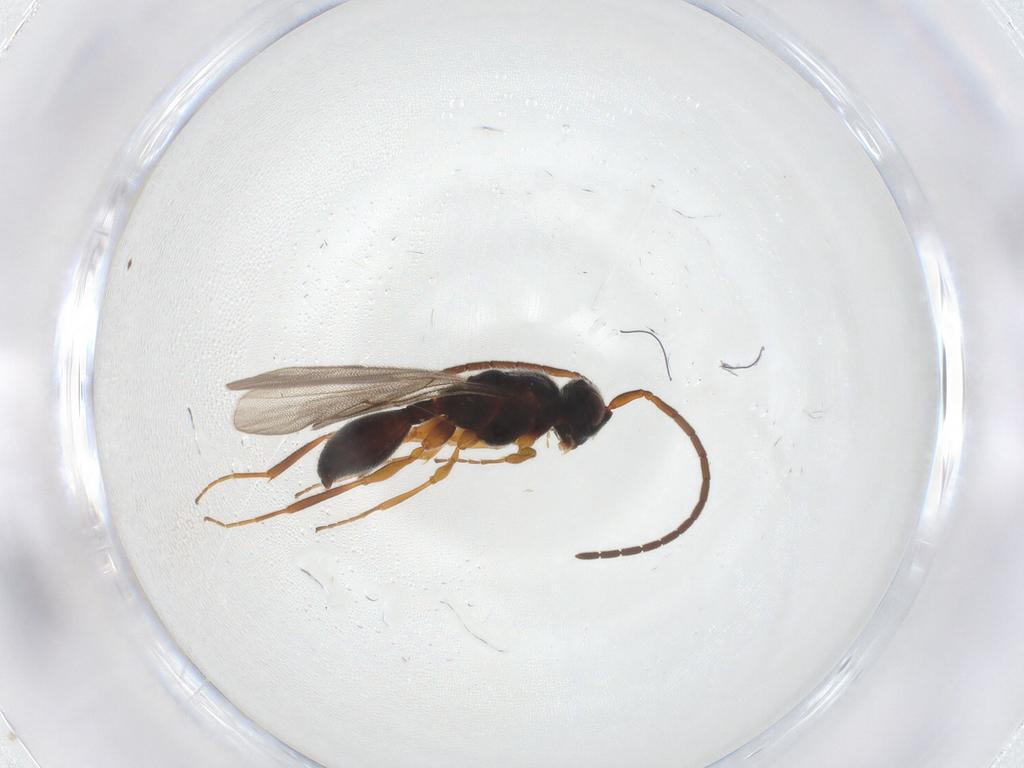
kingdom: Animalia
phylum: Arthropoda
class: Insecta
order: Hymenoptera
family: Diapriidae
